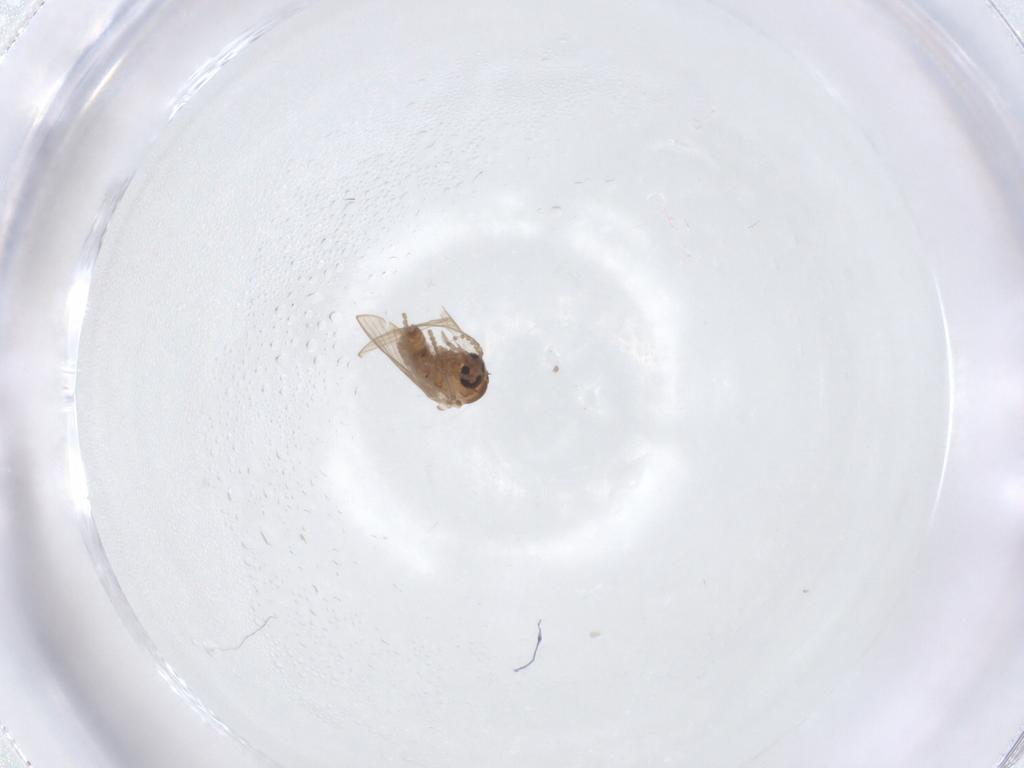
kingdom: Animalia
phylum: Arthropoda
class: Insecta
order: Diptera
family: Psychodidae
